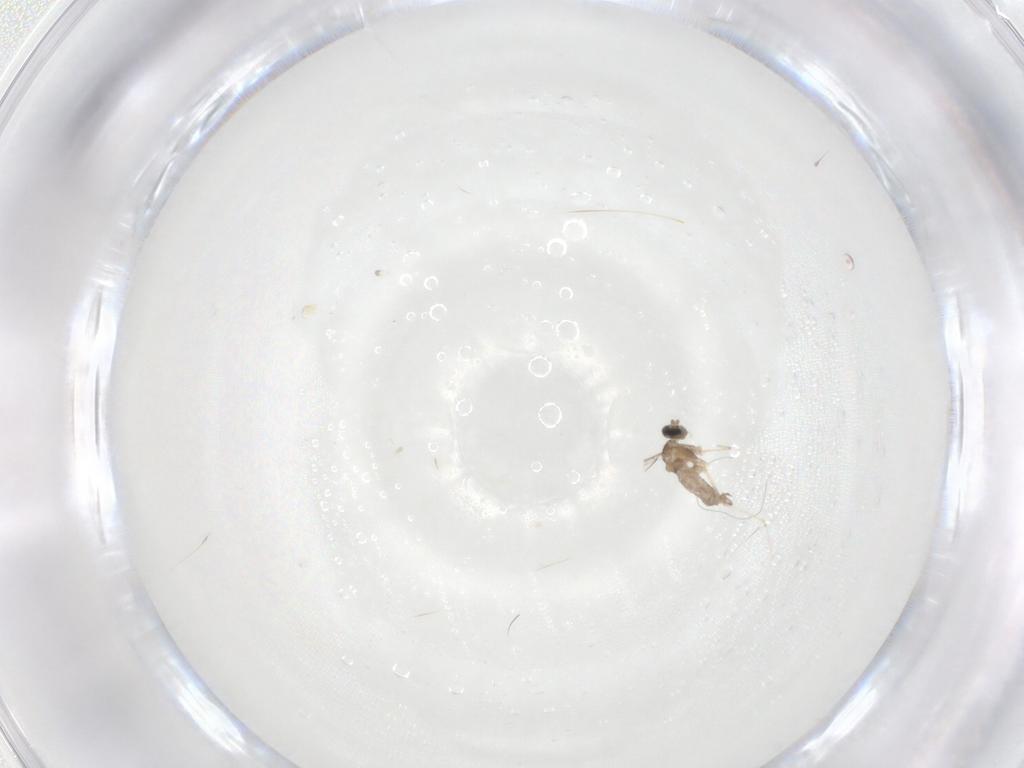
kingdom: Animalia
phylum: Arthropoda
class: Insecta
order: Diptera
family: Cecidomyiidae
